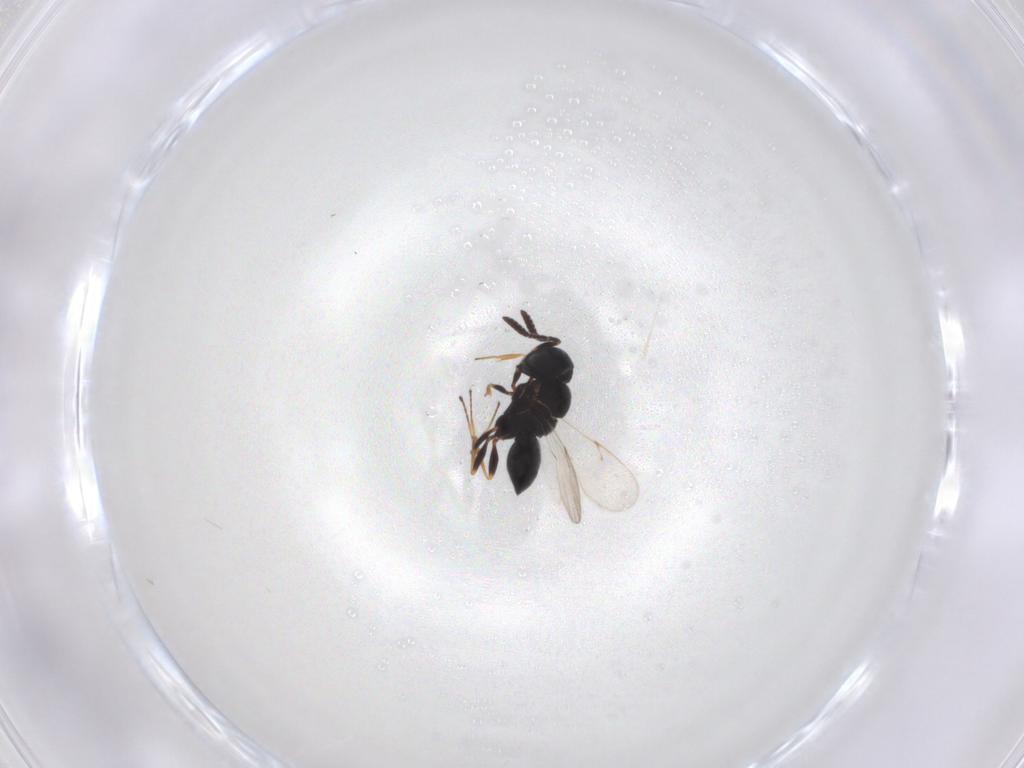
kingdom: Animalia
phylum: Arthropoda
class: Insecta
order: Hymenoptera
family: Scelionidae
